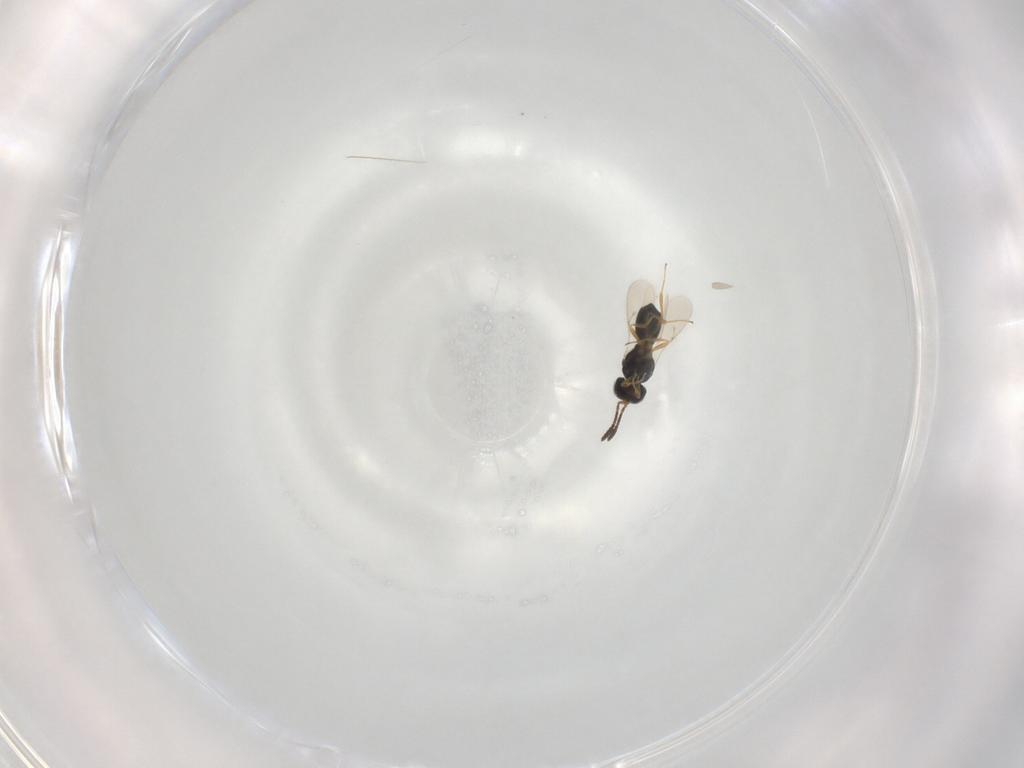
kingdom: Animalia
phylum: Arthropoda
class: Insecta
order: Hymenoptera
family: Scelionidae
